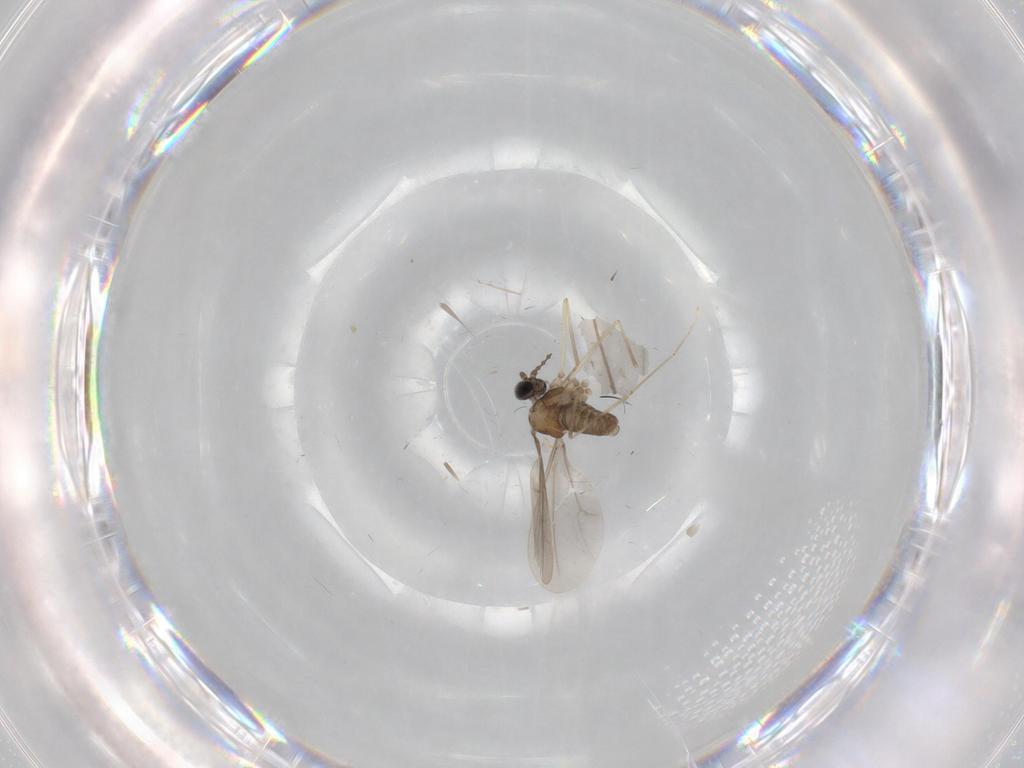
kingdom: Animalia
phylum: Arthropoda
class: Insecta
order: Diptera
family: Cecidomyiidae
